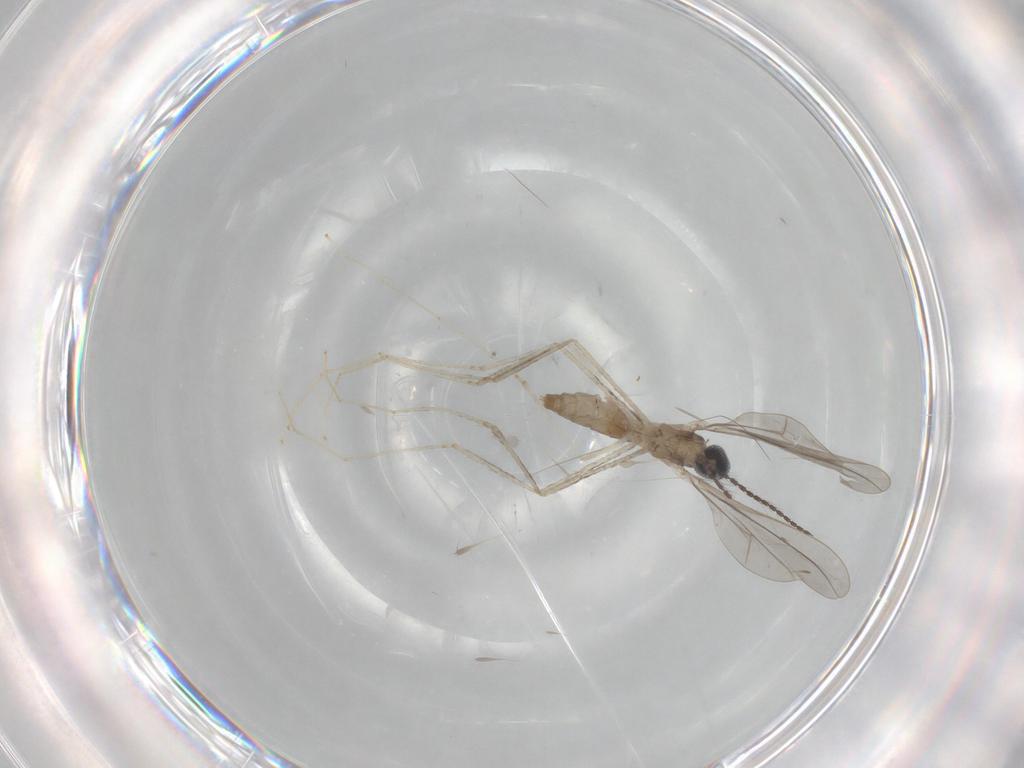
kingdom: Animalia
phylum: Arthropoda
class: Insecta
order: Diptera
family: Cecidomyiidae
